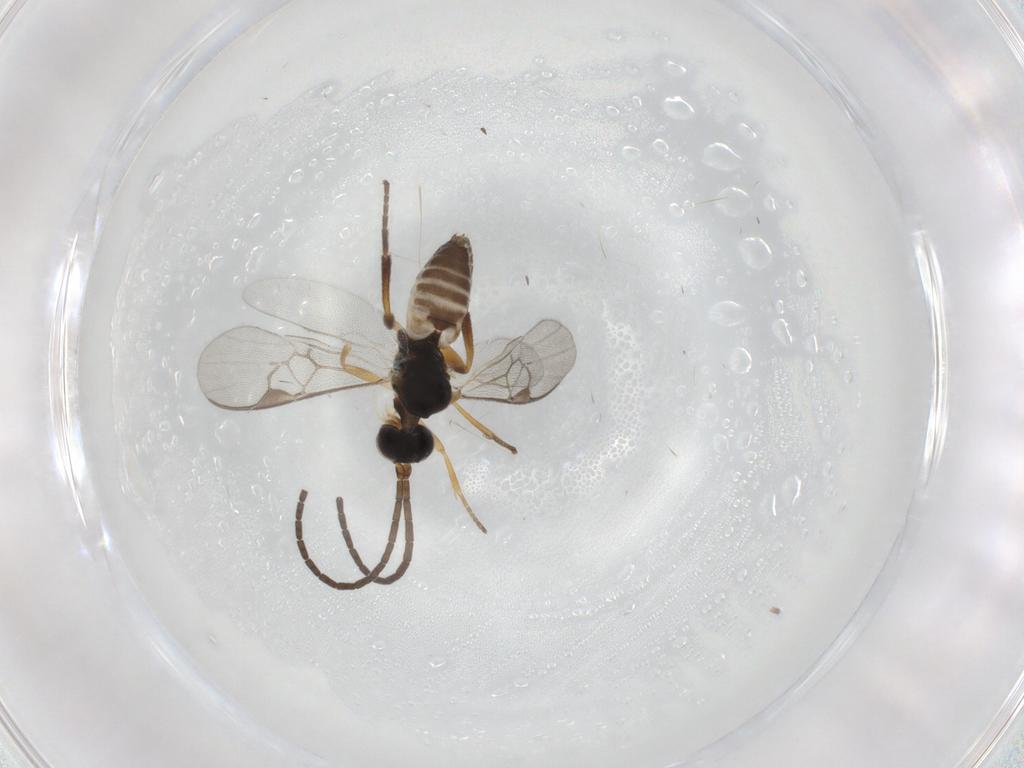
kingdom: Animalia
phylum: Arthropoda
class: Insecta
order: Hymenoptera
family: Braconidae
